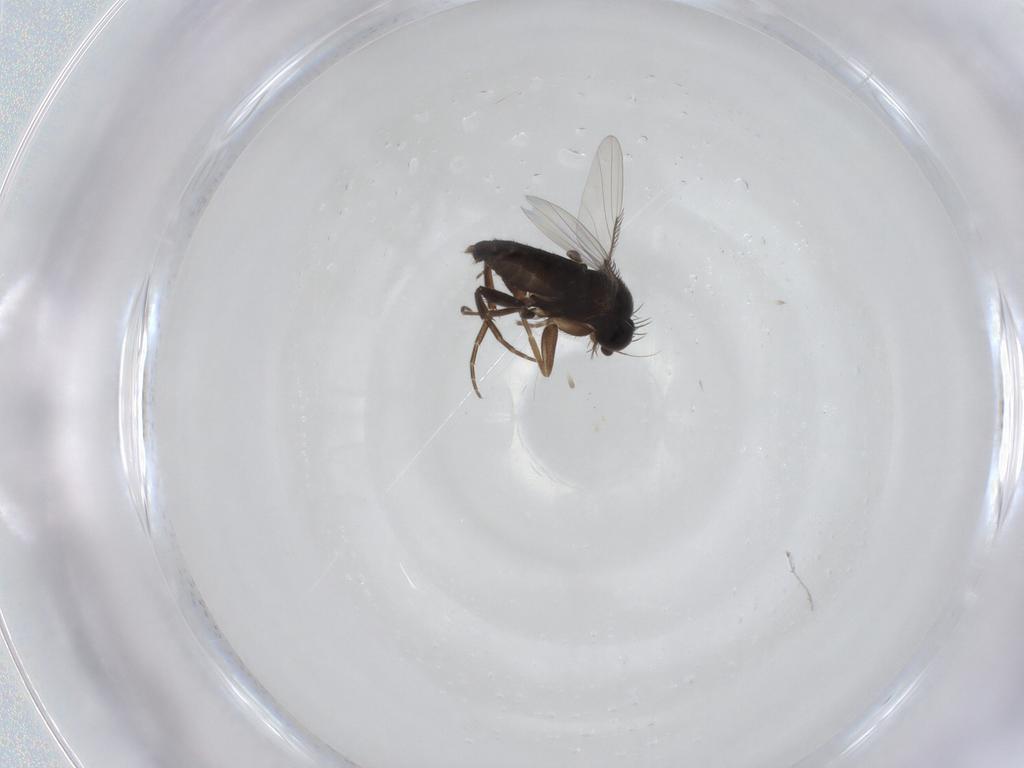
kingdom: Animalia
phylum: Arthropoda
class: Insecta
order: Diptera
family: Phoridae
